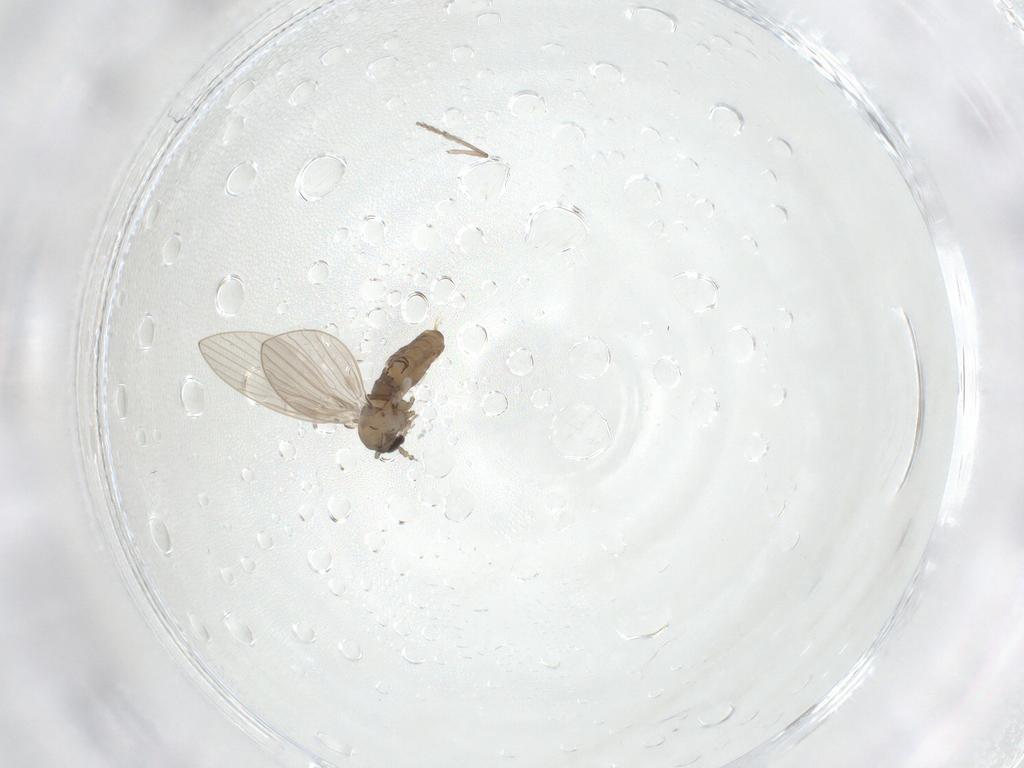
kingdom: Animalia
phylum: Arthropoda
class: Insecta
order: Diptera
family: Psychodidae
